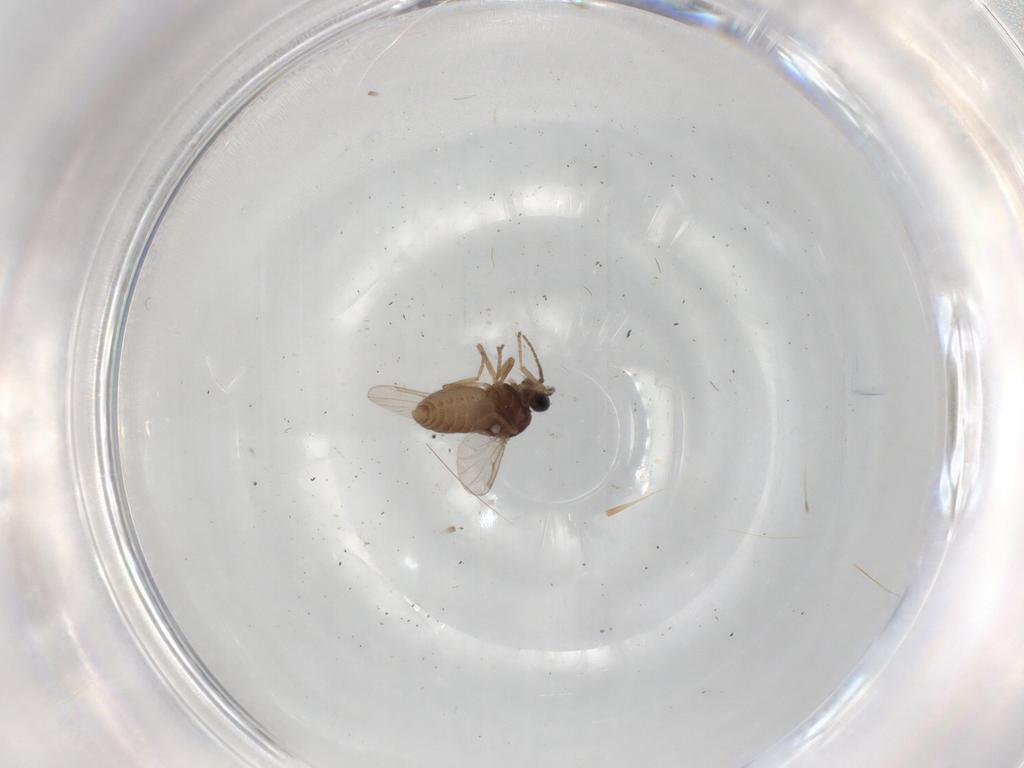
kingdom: Animalia
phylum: Arthropoda
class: Insecta
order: Diptera
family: Ceratopogonidae
